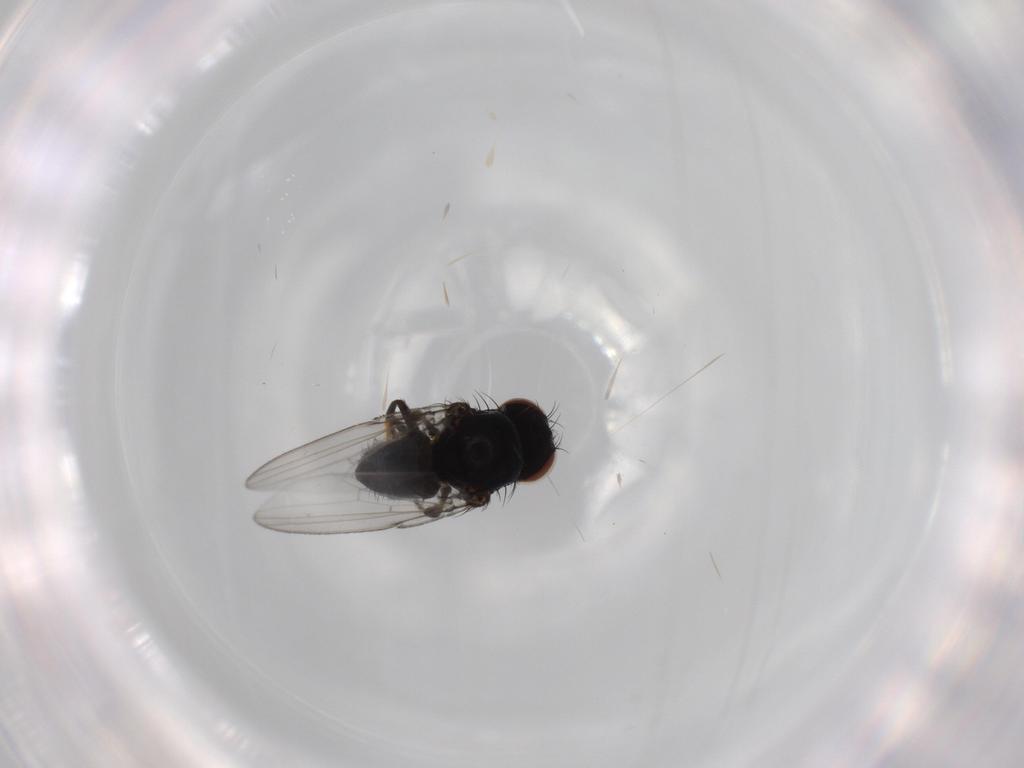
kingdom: Animalia
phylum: Arthropoda
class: Insecta
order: Diptera
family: Milichiidae
